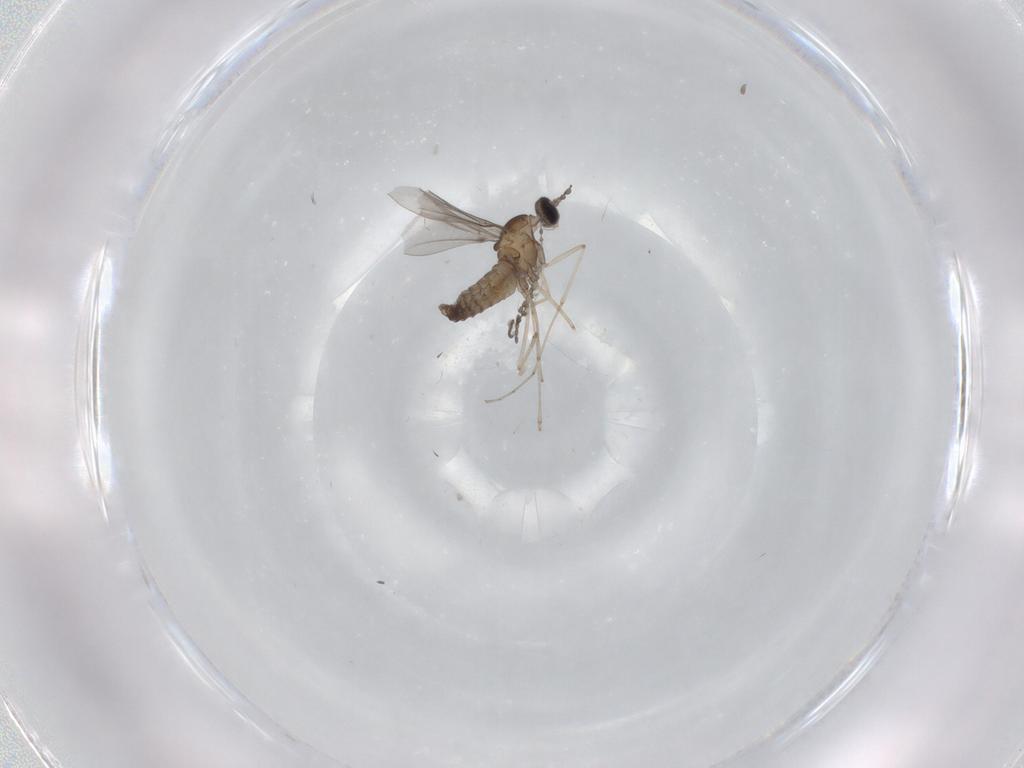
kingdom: Animalia
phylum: Arthropoda
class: Insecta
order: Diptera
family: Cecidomyiidae
